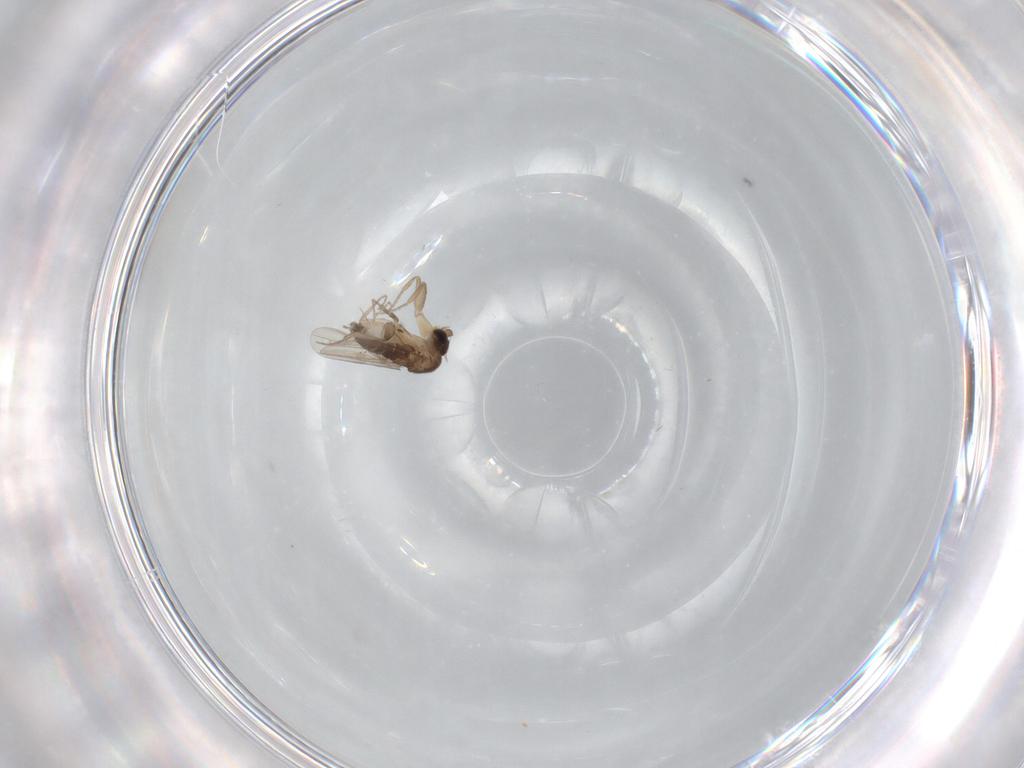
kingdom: Animalia
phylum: Arthropoda
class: Insecta
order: Diptera
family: Phoridae
